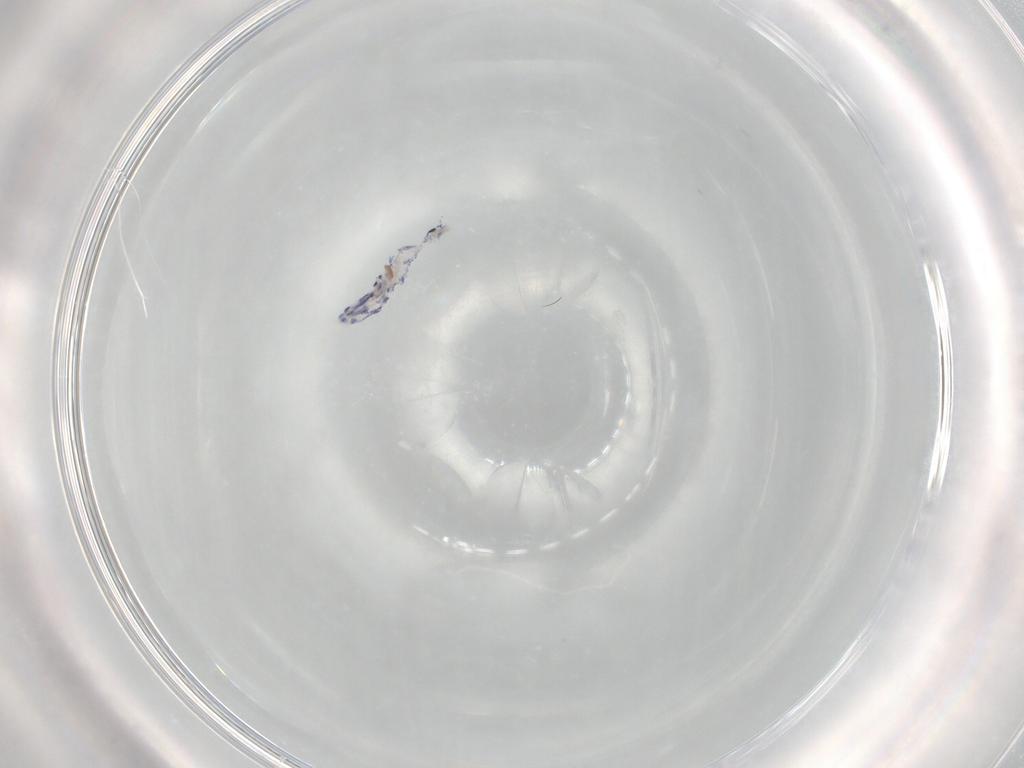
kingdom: Animalia
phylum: Arthropoda
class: Collembola
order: Entomobryomorpha
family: Entomobryidae
